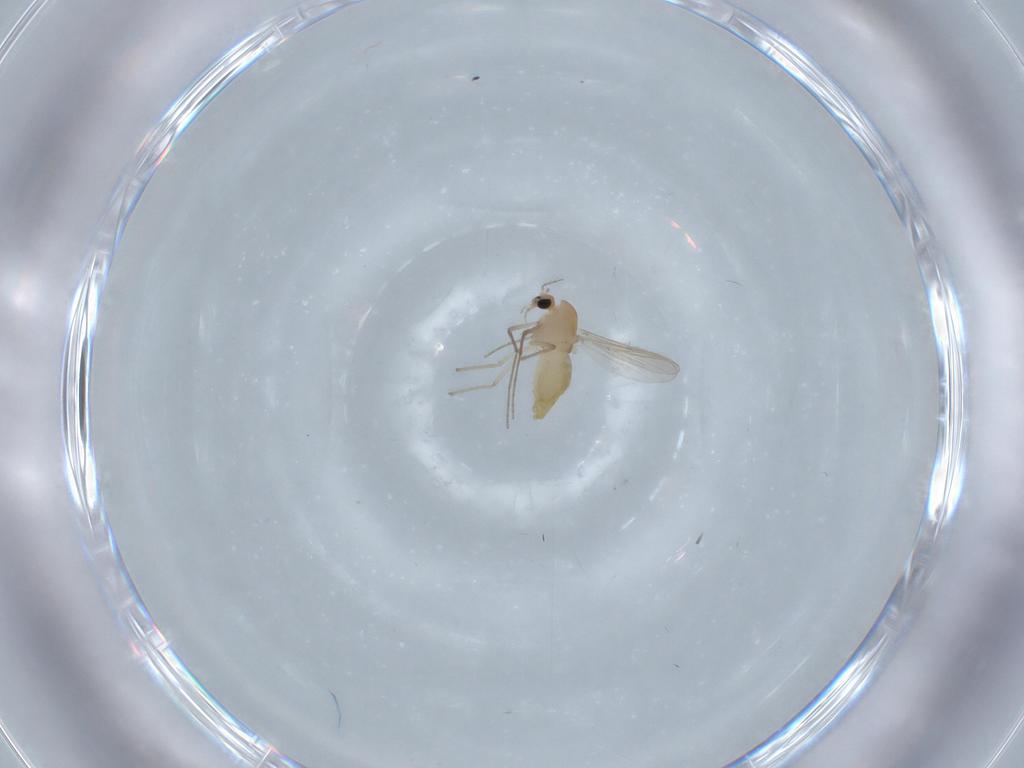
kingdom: Animalia
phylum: Arthropoda
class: Insecta
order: Diptera
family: Chironomidae
